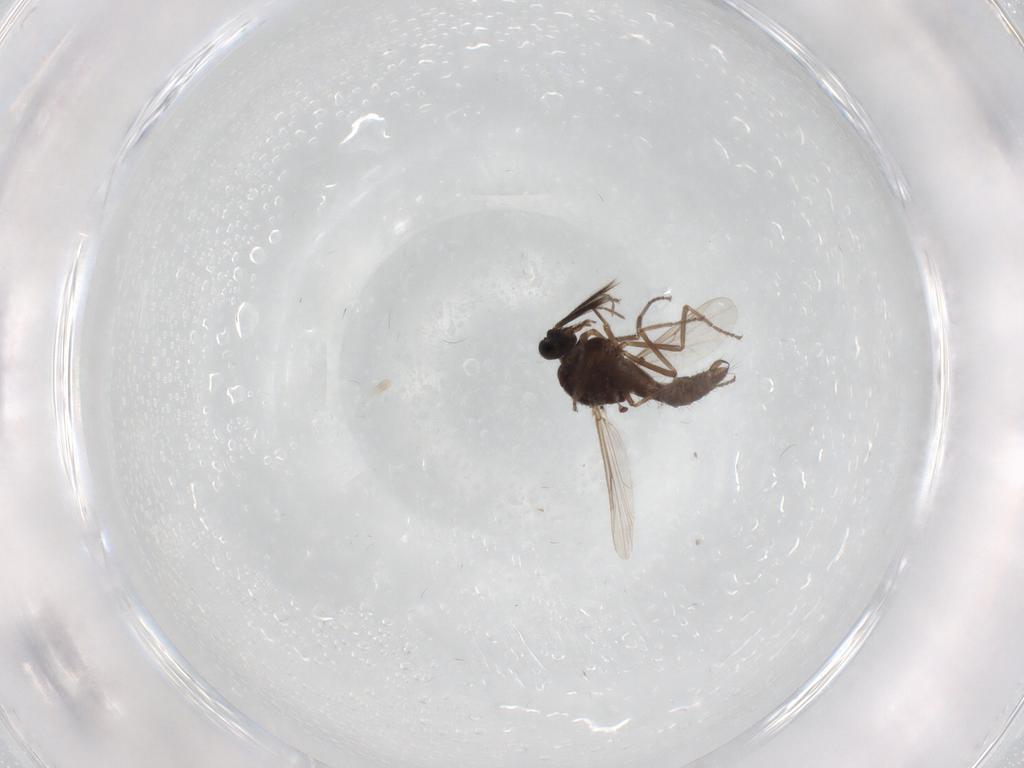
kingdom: Animalia
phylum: Arthropoda
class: Insecta
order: Diptera
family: Ceratopogonidae
